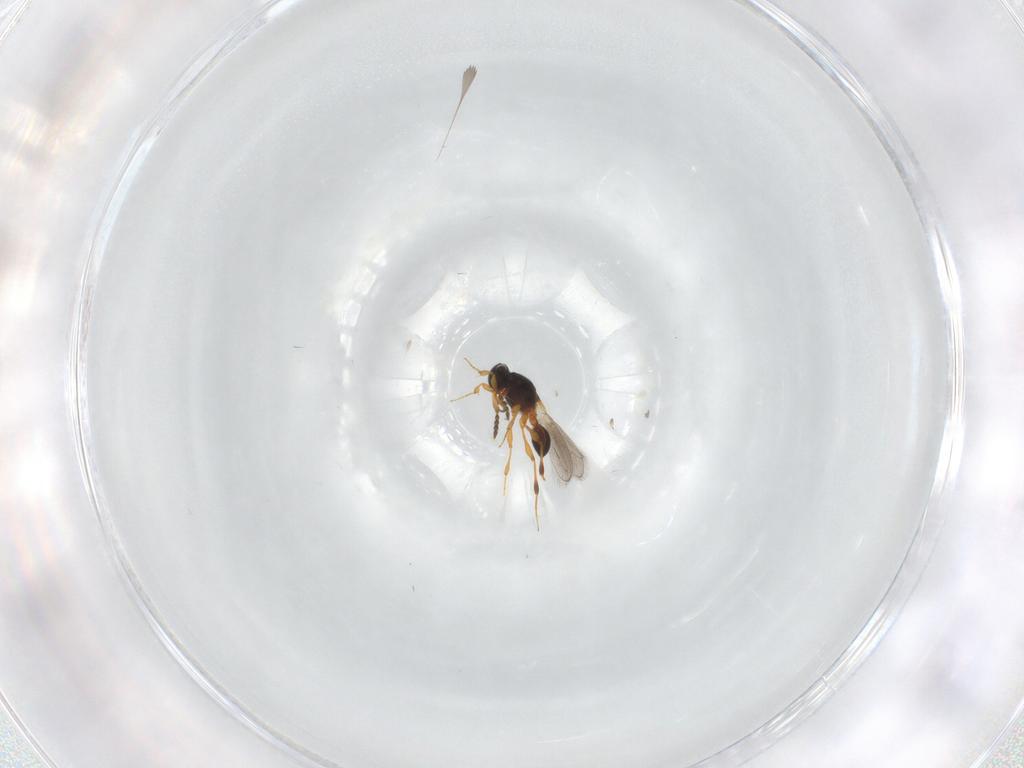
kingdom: Animalia
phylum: Arthropoda
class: Insecta
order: Hymenoptera
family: Platygastridae
